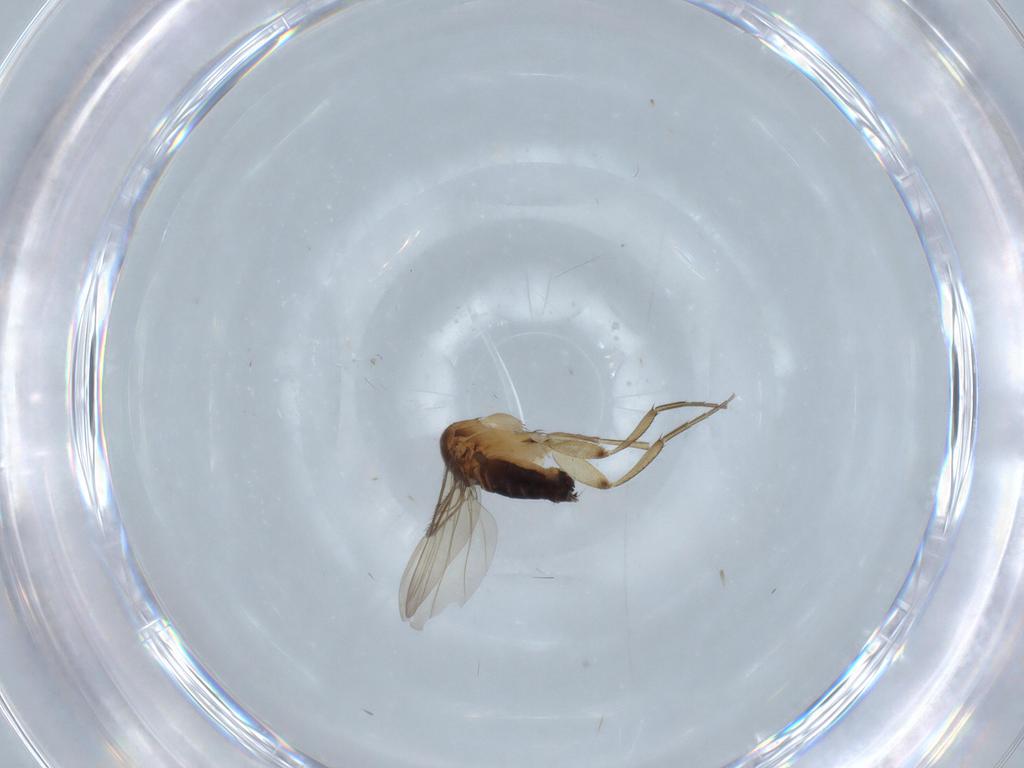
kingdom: Animalia
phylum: Arthropoda
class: Insecta
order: Diptera
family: Phoridae
